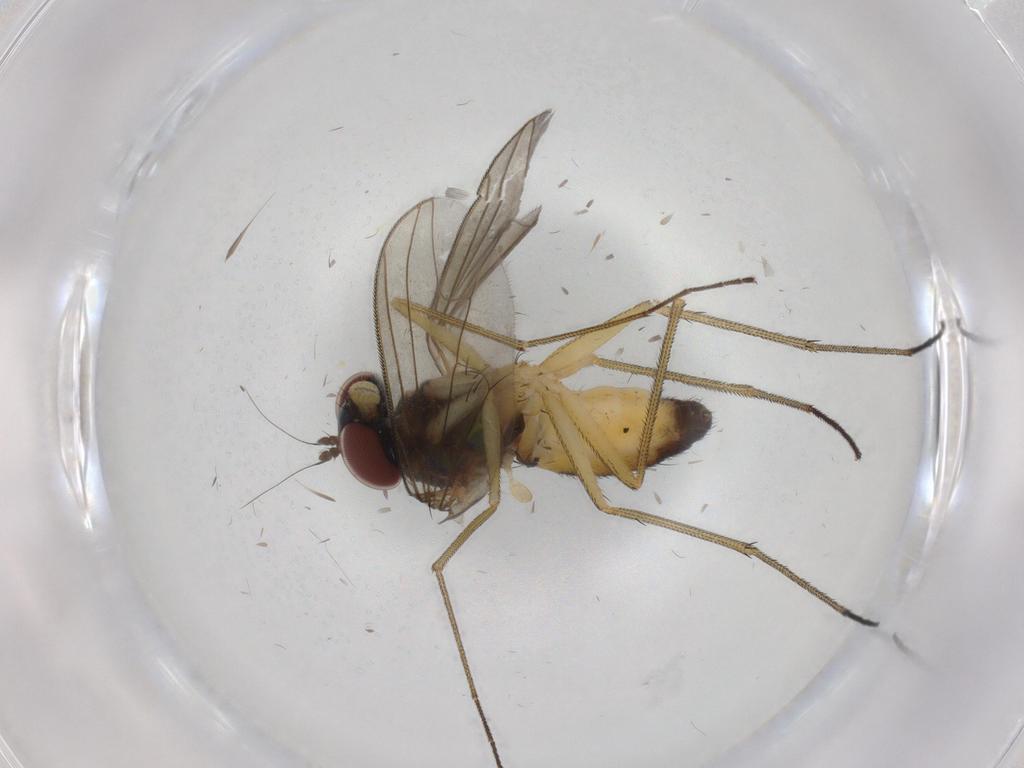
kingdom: Animalia
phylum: Arthropoda
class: Insecta
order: Diptera
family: Dolichopodidae
